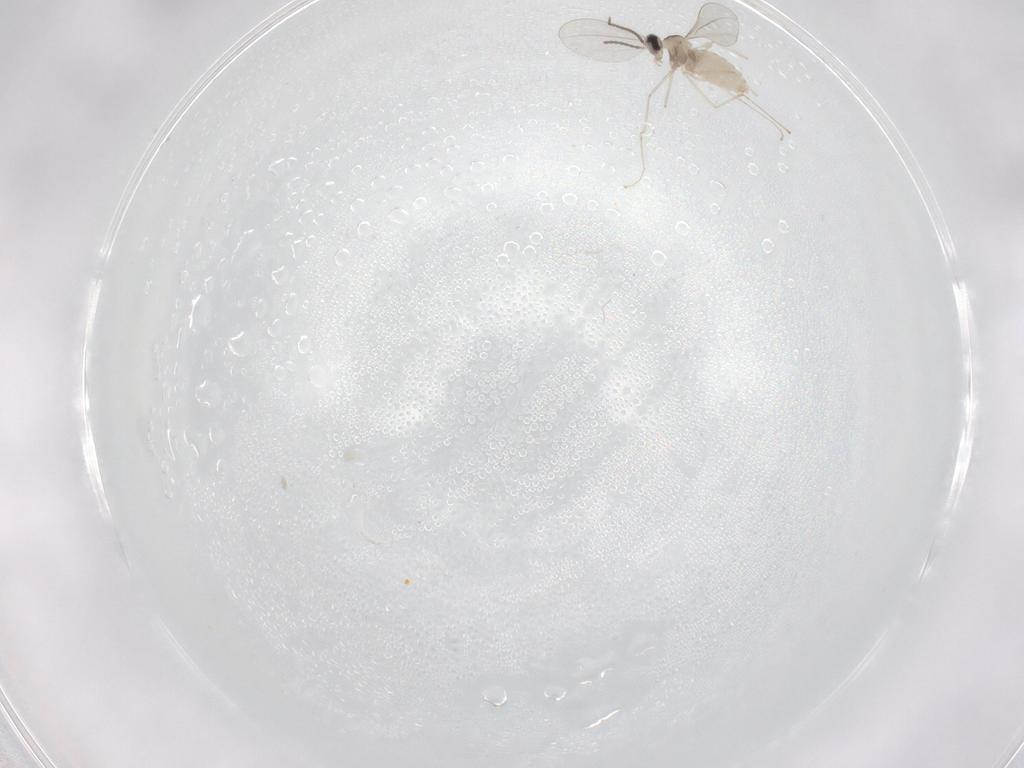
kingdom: Animalia
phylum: Arthropoda
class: Insecta
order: Diptera
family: Cecidomyiidae
